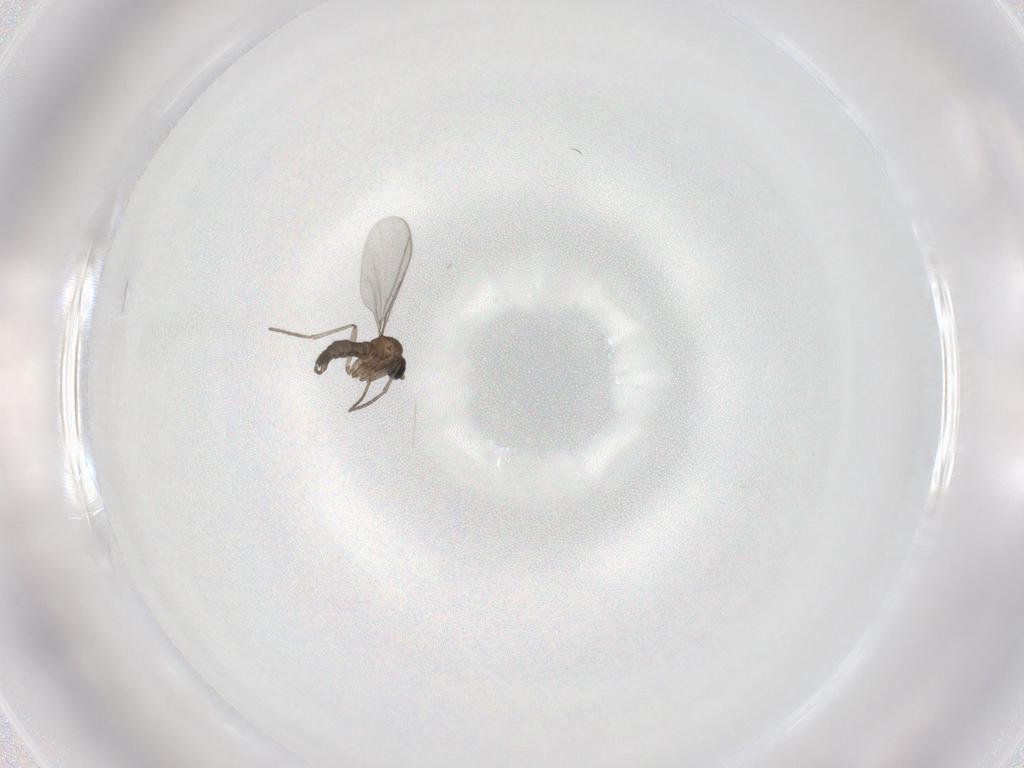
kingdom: Animalia
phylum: Arthropoda
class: Insecta
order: Diptera
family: Sciaridae
